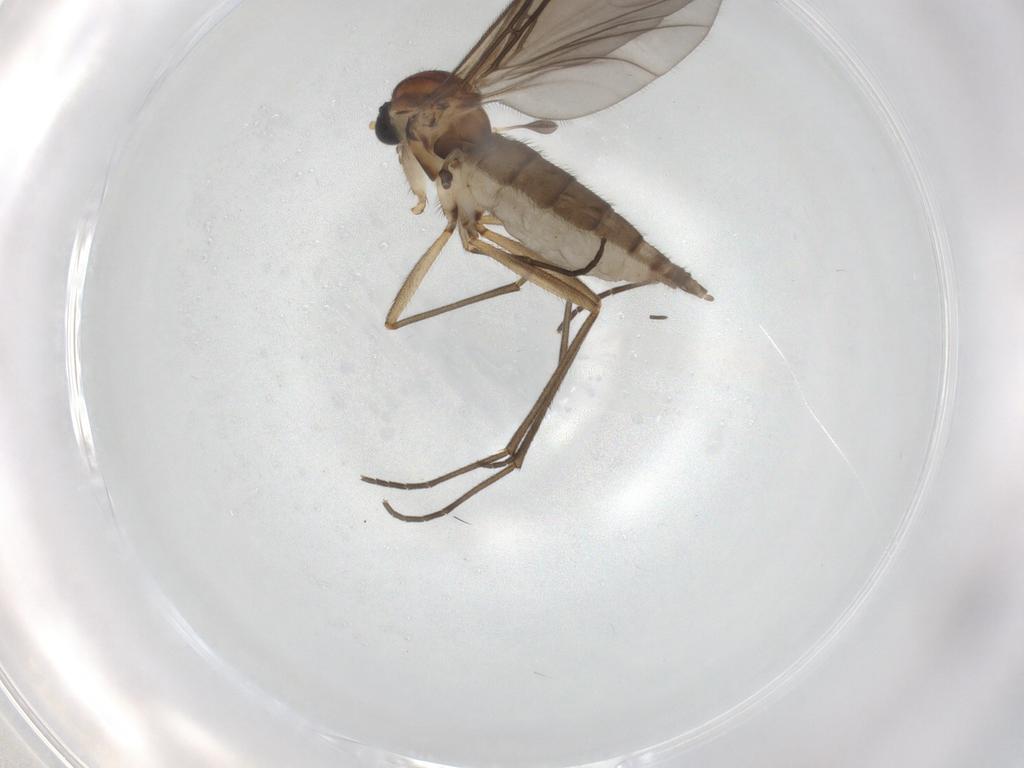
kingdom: Animalia
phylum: Arthropoda
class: Insecta
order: Diptera
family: Sciaridae
